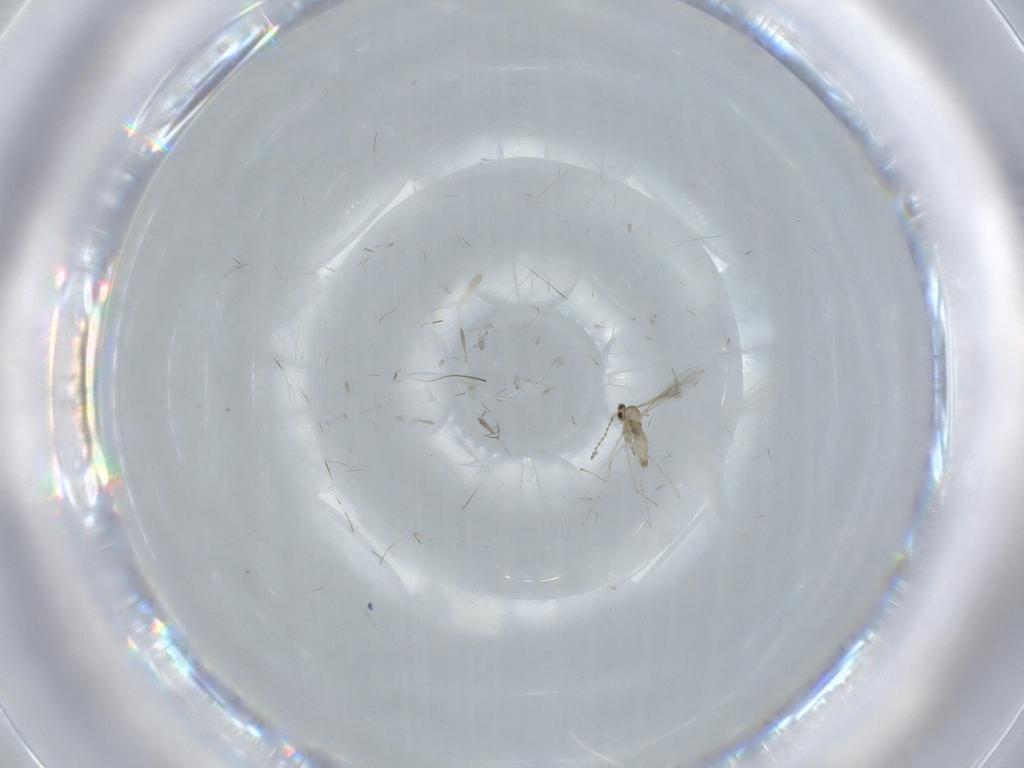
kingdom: Animalia
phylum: Arthropoda
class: Insecta
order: Diptera
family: Cecidomyiidae
